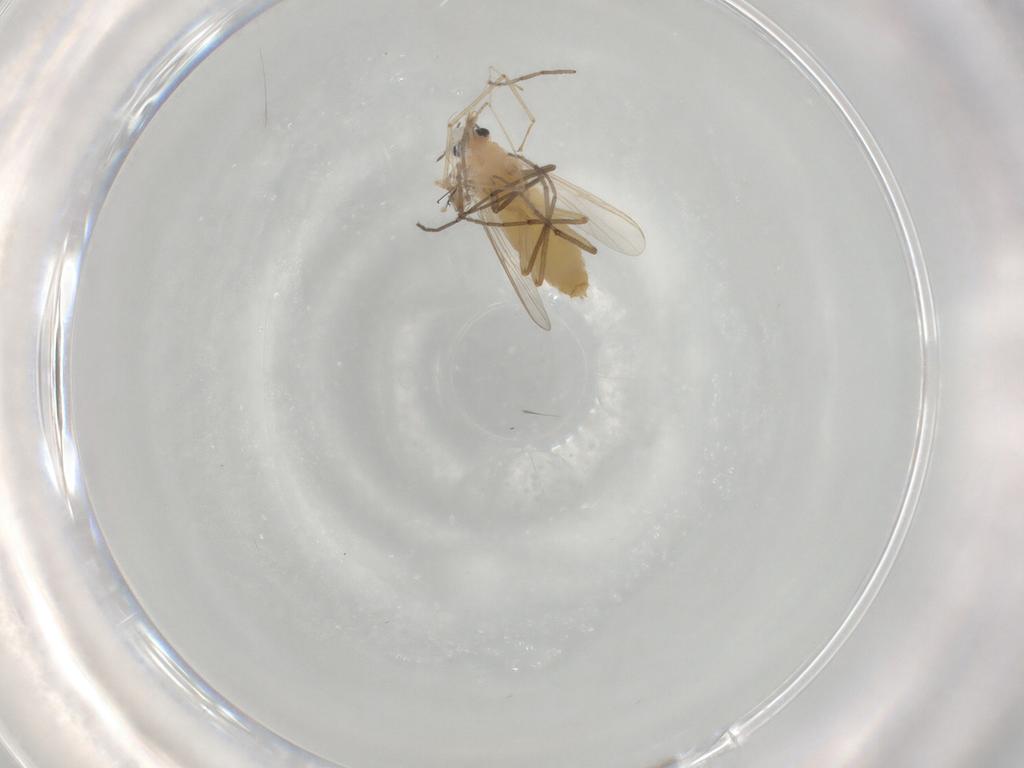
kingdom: Animalia
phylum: Arthropoda
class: Insecta
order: Diptera
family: Chironomidae
